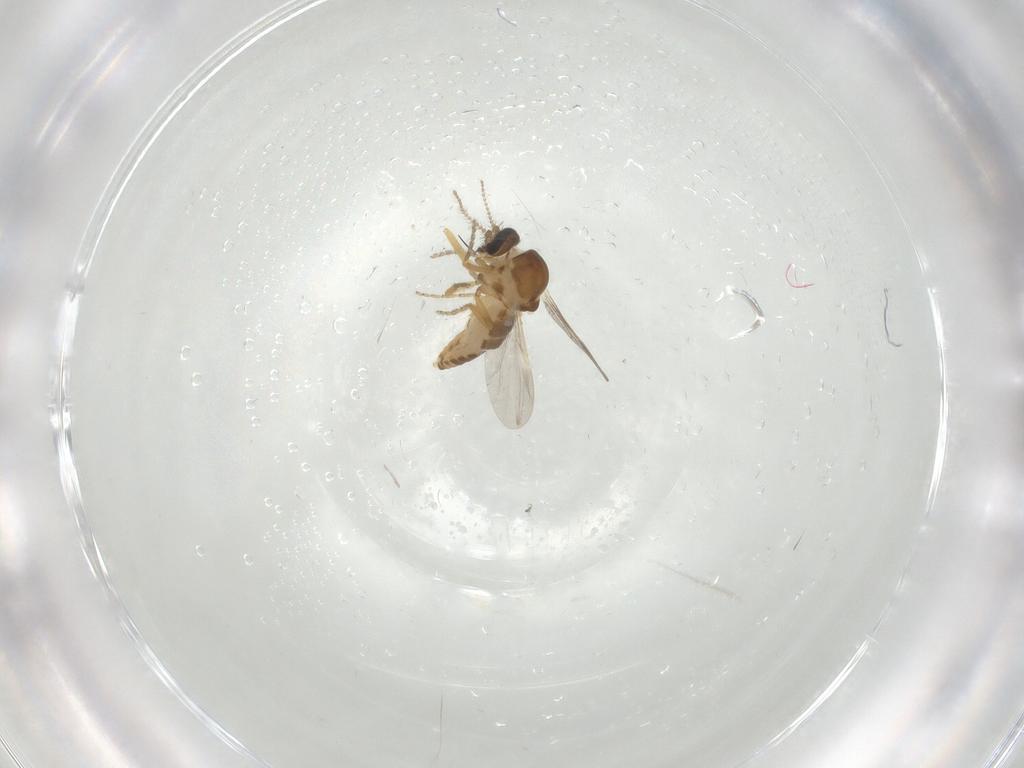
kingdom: Animalia
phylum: Arthropoda
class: Insecta
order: Diptera
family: Ceratopogonidae
